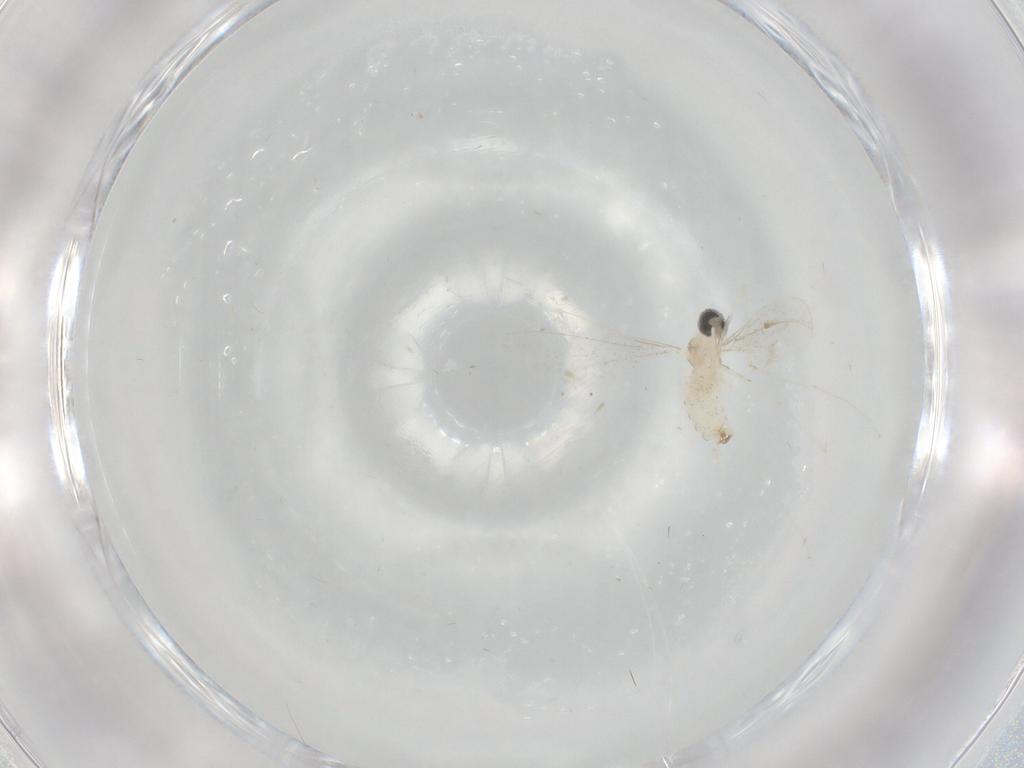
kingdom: Animalia
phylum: Arthropoda
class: Insecta
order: Diptera
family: Cecidomyiidae
